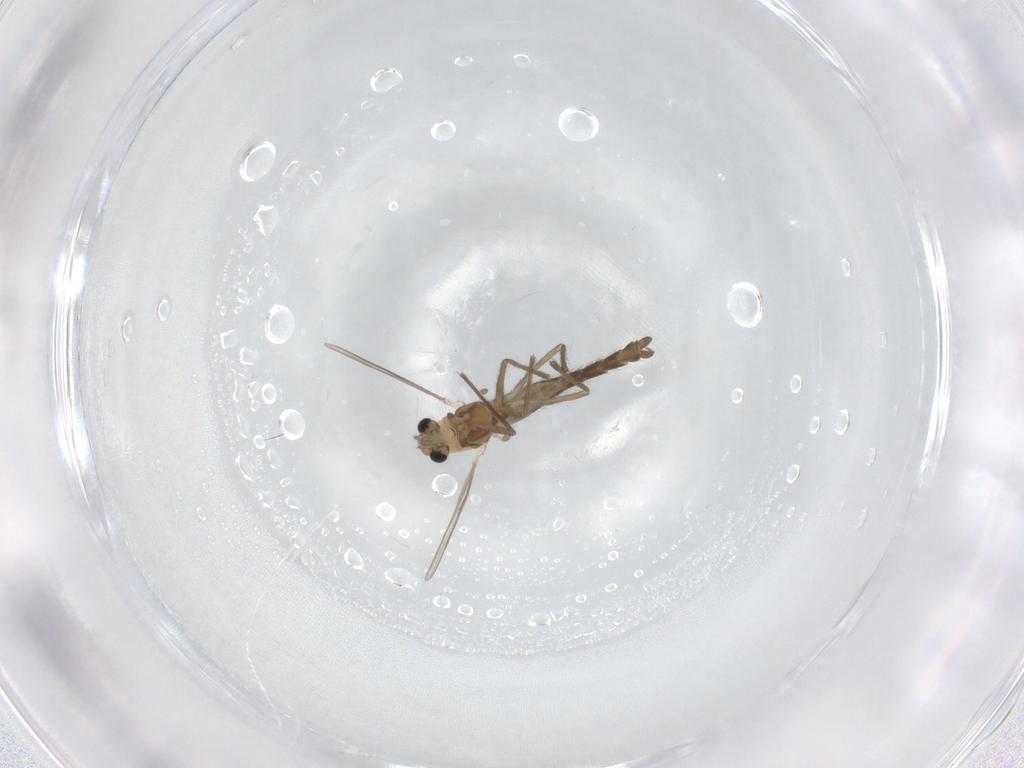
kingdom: Animalia
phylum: Arthropoda
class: Insecta
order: Diptera
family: Chironomidae
